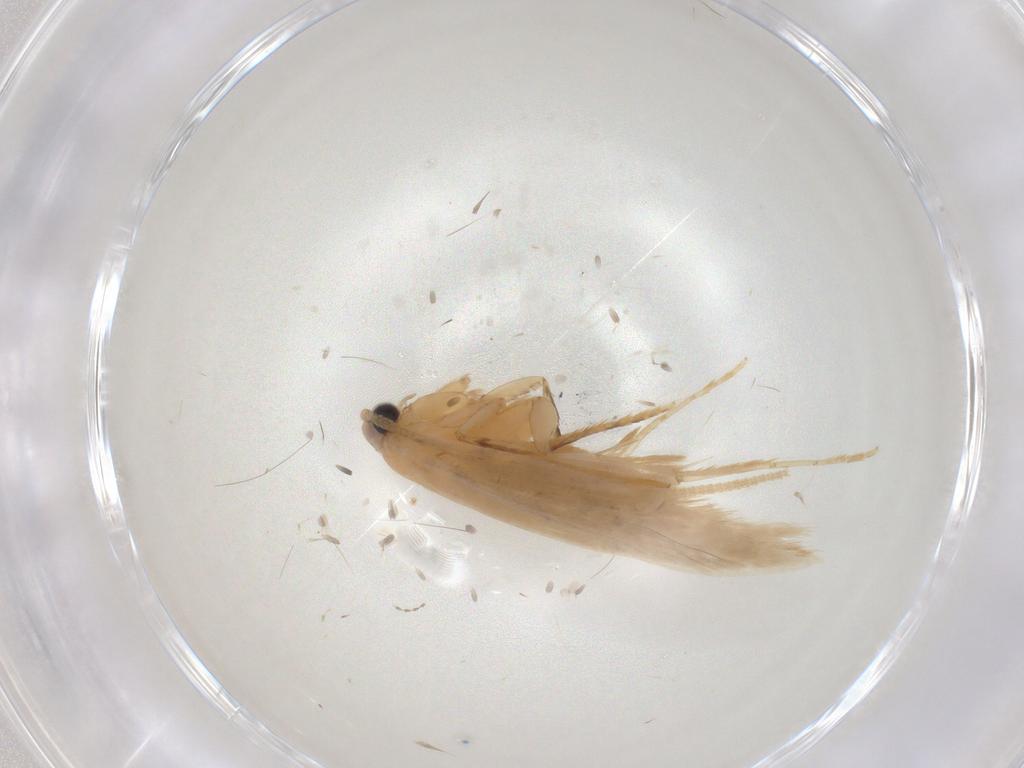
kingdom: Animalia
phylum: Arthropoda
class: Insecta
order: Lepidoptera
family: Nepticulidae
